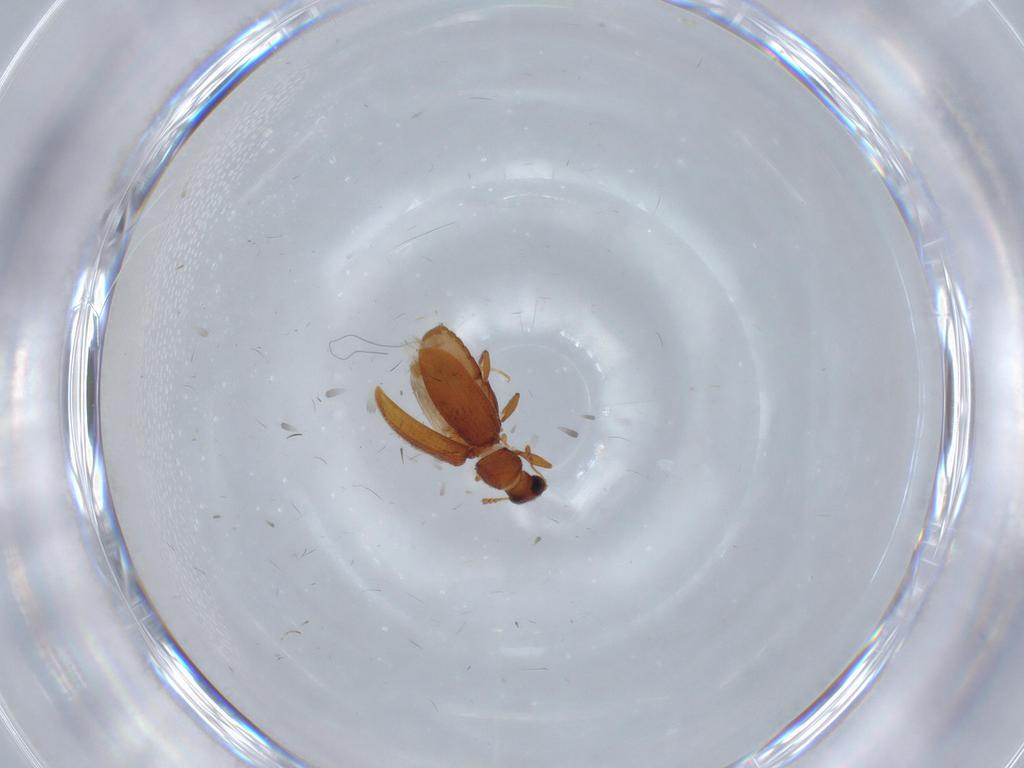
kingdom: Animalia
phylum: Arthropoda
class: Insecta
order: Coleoptera
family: Latridiidae
